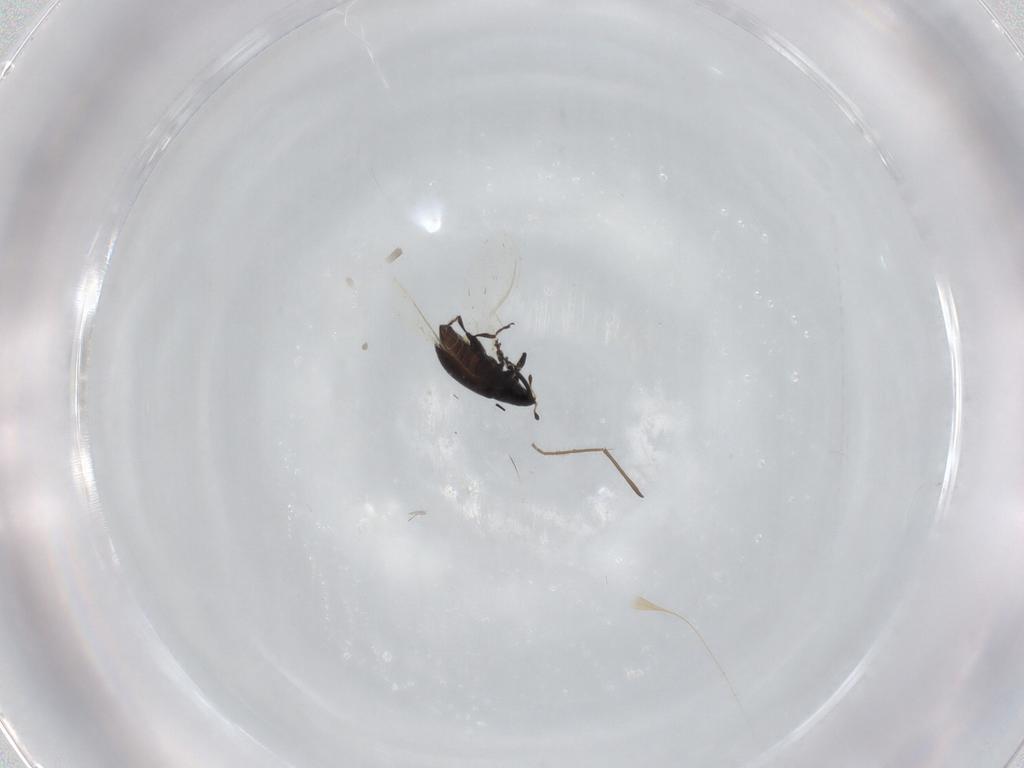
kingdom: Animalia
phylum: Arthropoda
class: Insecta
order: Coleoptera
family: Curculionidae
